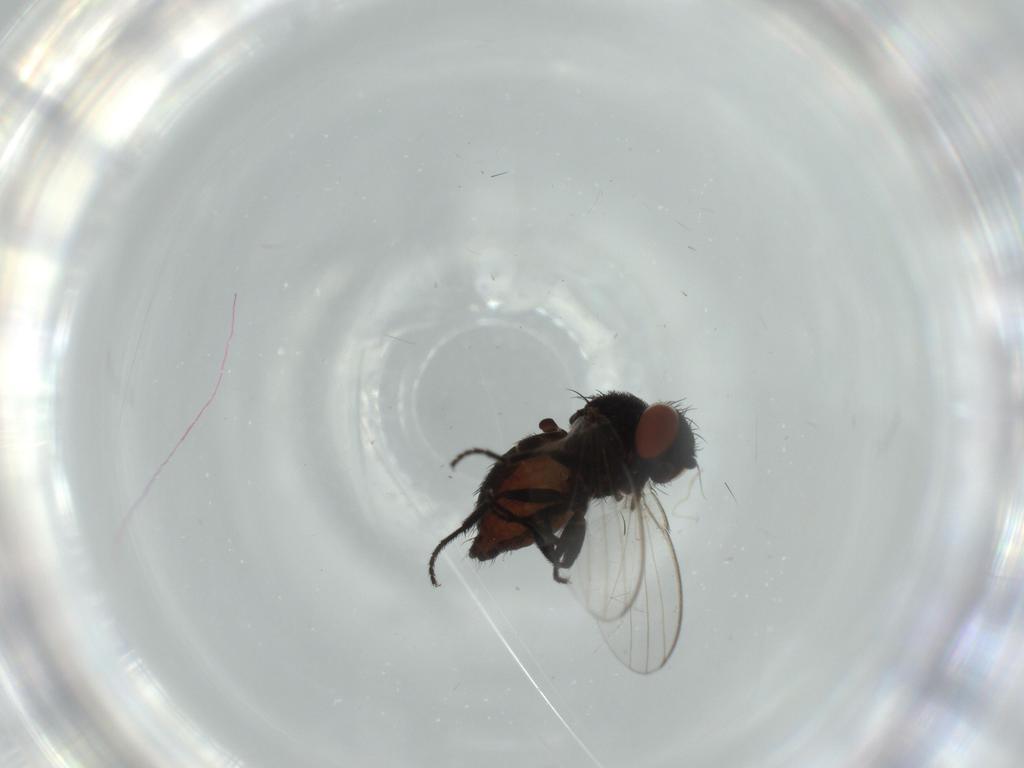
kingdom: Animalia
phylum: Arthropoda
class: Insecta
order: Diptera
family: Milichiidae
